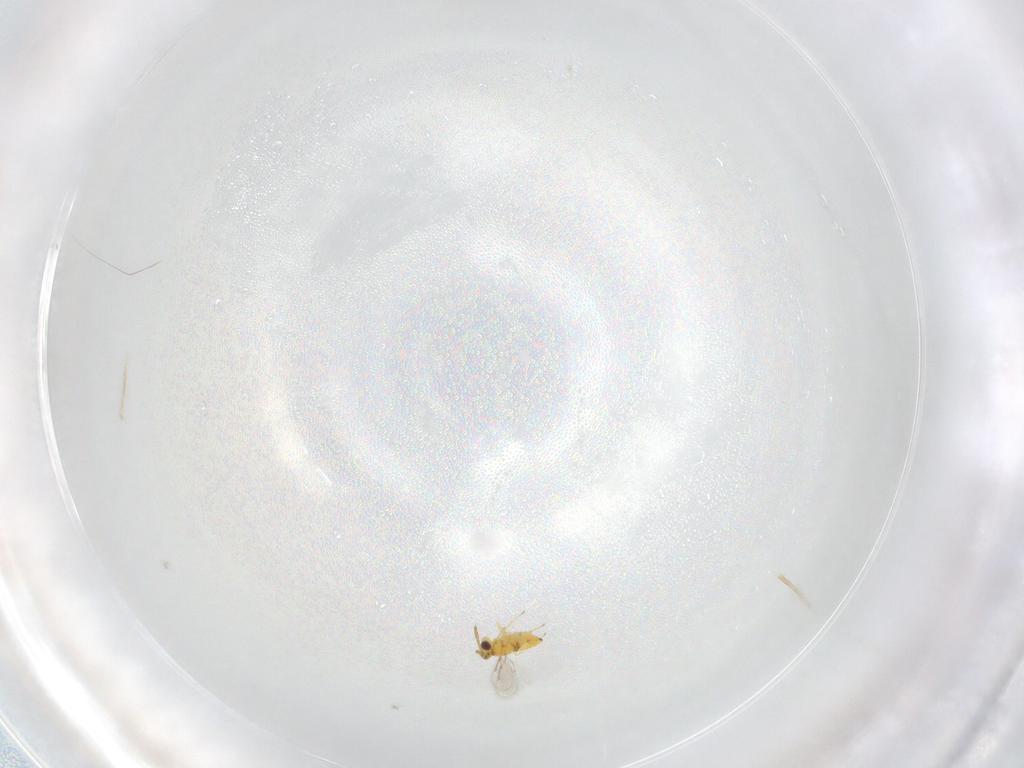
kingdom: Animalia
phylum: Arthropoda
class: Insecta
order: Hymenoptera
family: Aphelinidae
